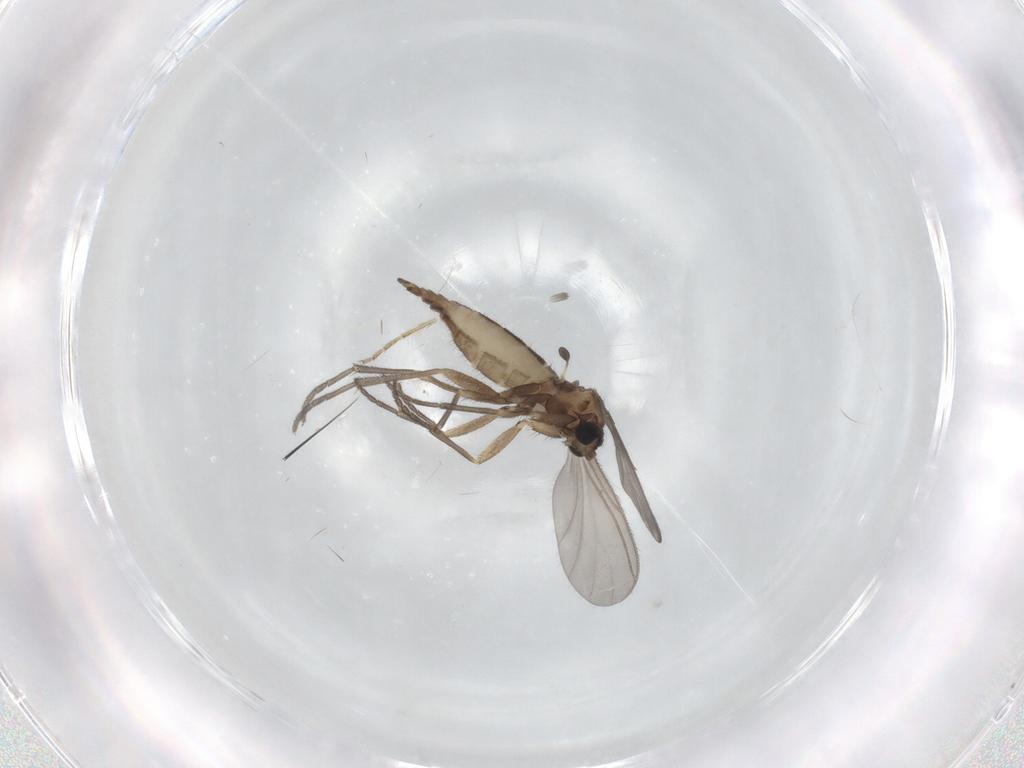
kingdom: Animalia
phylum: Arthropoda
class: Insecta
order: Diptera
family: Sciaridae
